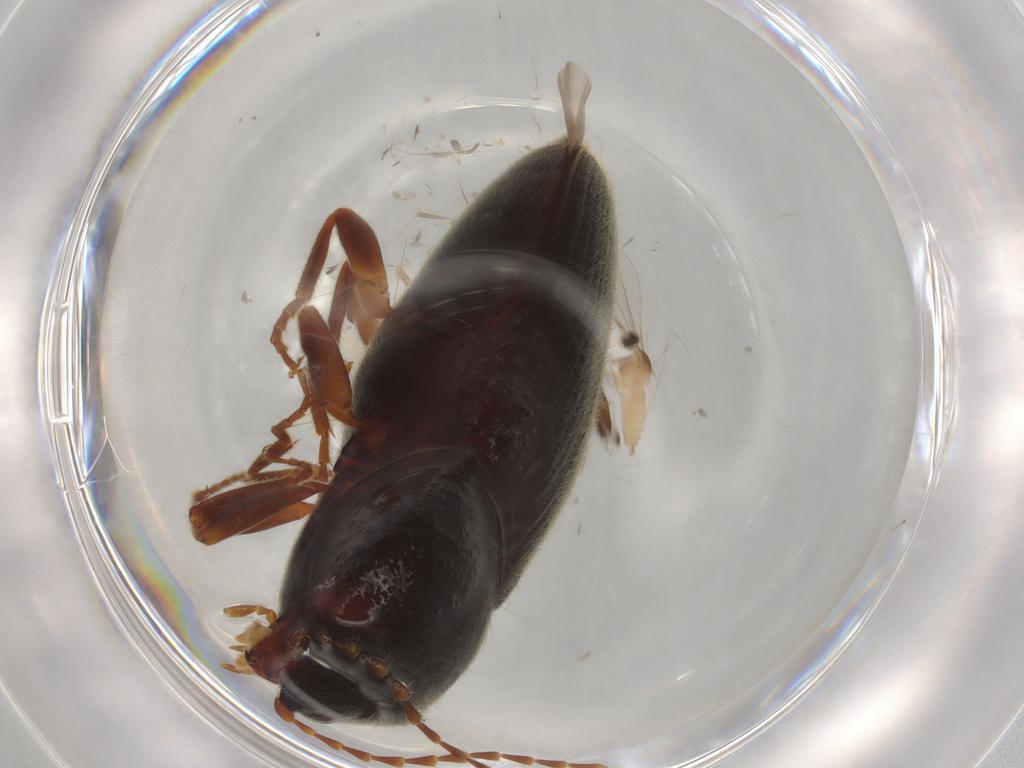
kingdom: Animalia
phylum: Arthropoda
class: Insecta
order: Diptera
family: Cecidomyiidae
